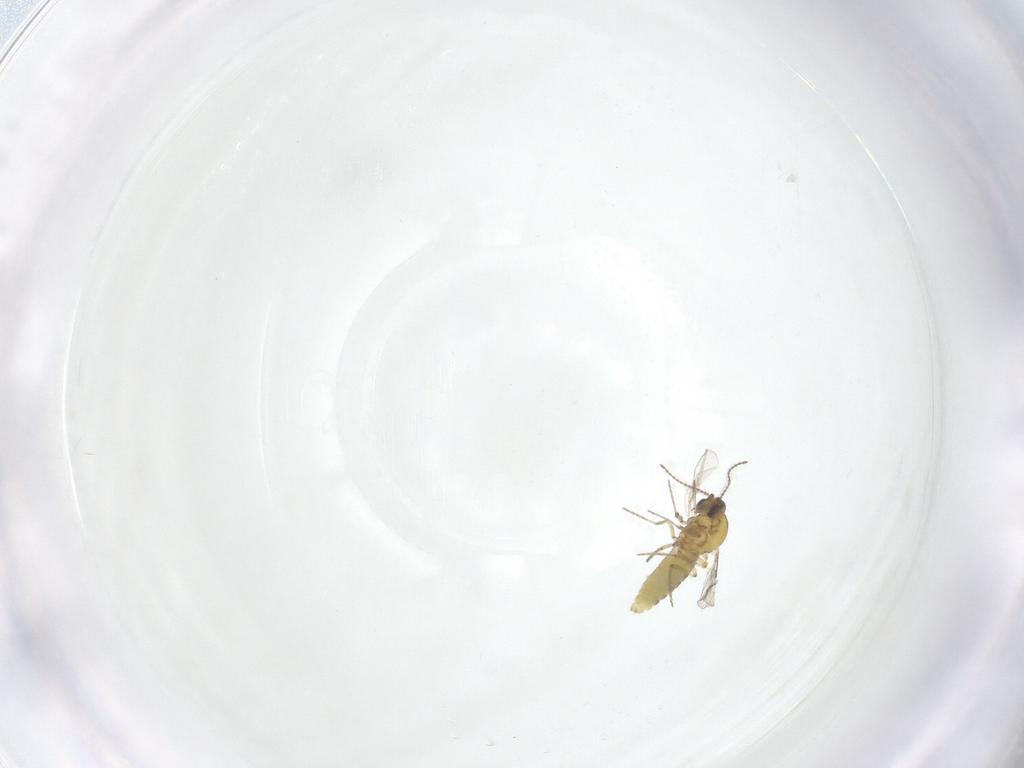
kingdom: Animalia
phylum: Arthropoda
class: Insecta
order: Diptera
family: Ceratopogonidae
